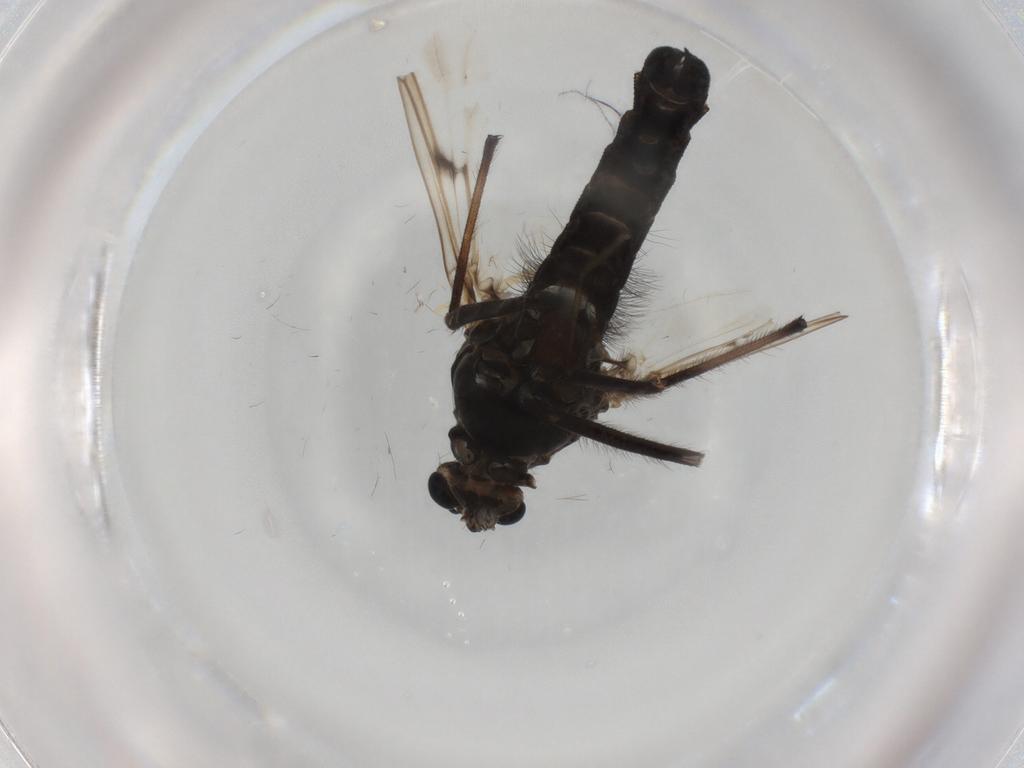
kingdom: Animalia
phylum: Arthropoda
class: Insecta
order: Diptera
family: Chironomidae
